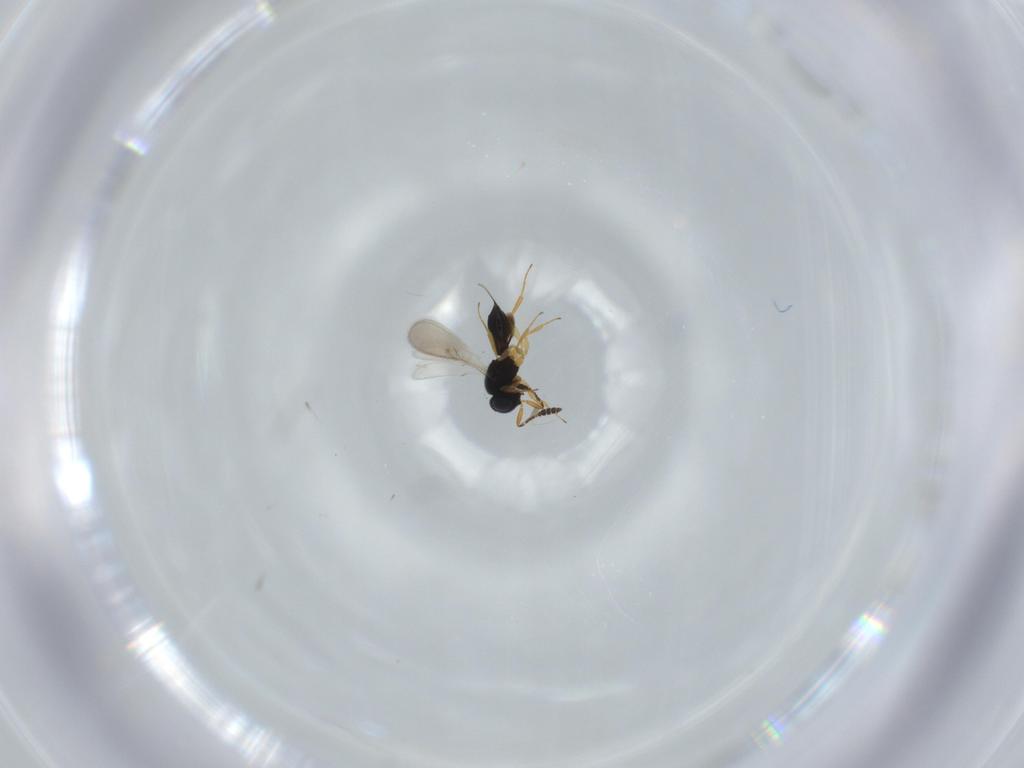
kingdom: Animalia
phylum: Arthropoda
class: Insecta
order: Hymenoptera
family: Scelionidae
